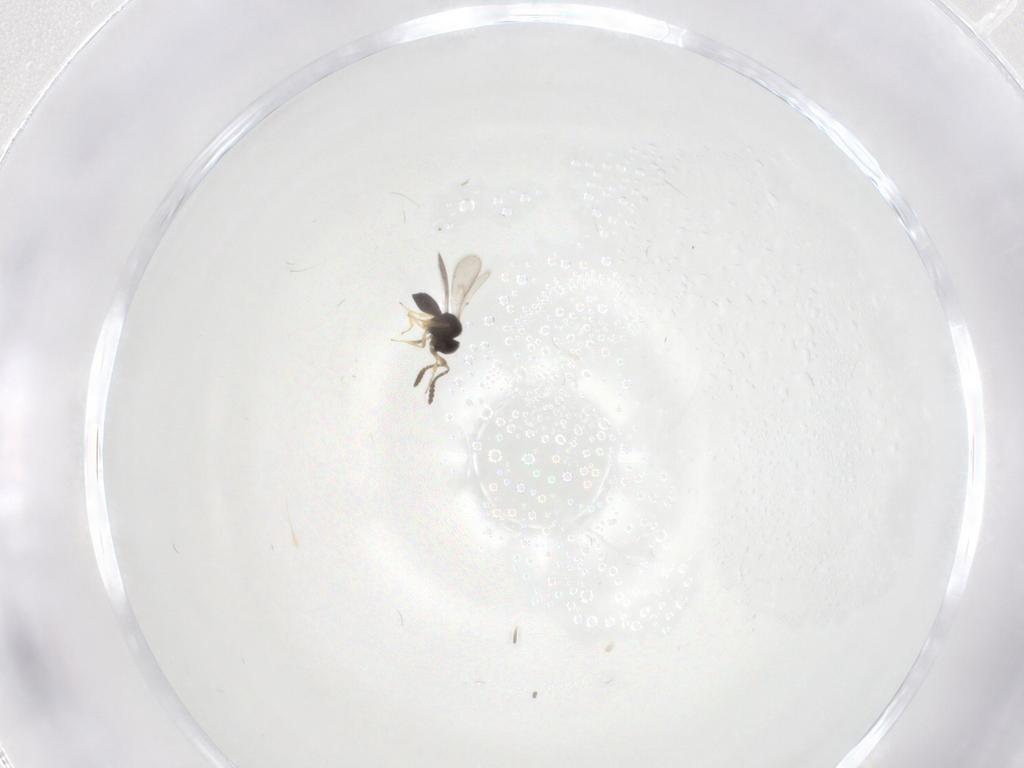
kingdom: Animalia
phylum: Arthropoda
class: Insecta
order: Hymenoptera
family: Scelionidae
